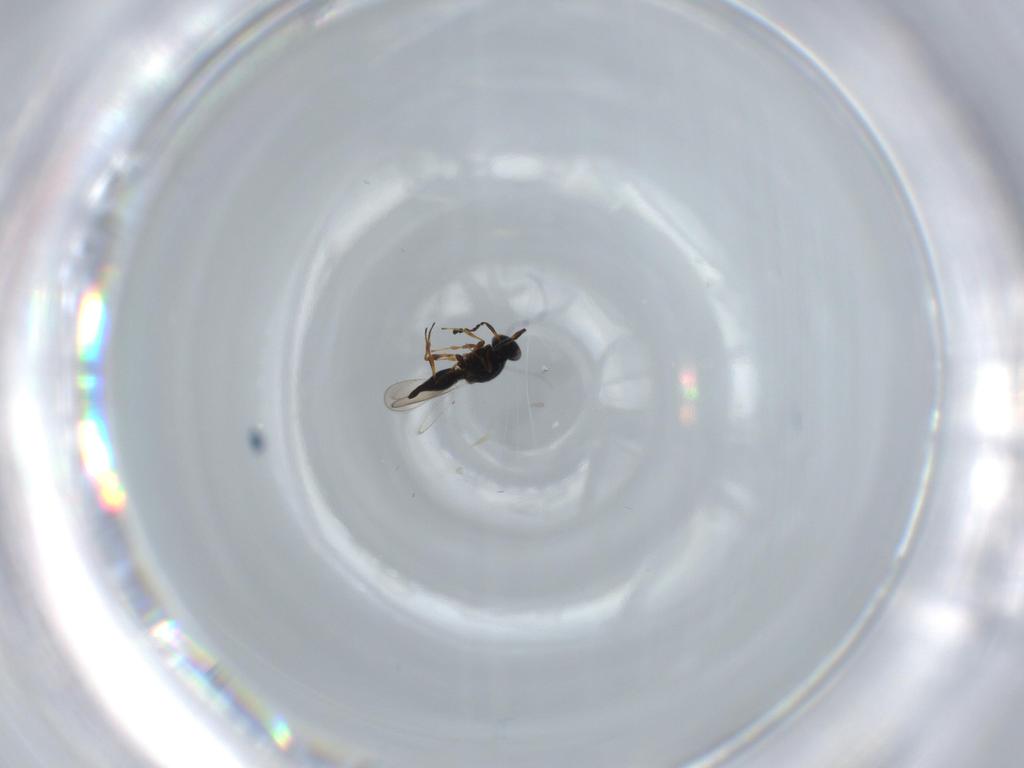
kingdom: Animalia
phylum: Arthropoda
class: Insecta
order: Hymenoptera
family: Platygastridae
